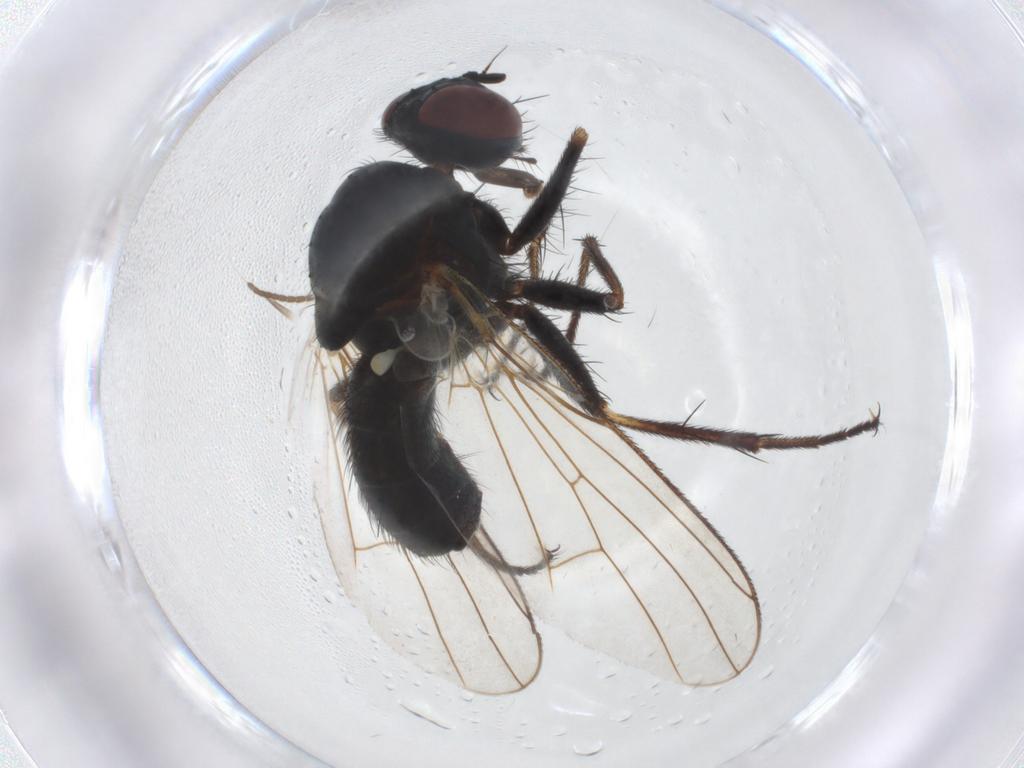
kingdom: Animalia
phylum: Arthropoda
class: Insecta
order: Diptera
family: Muscidae
